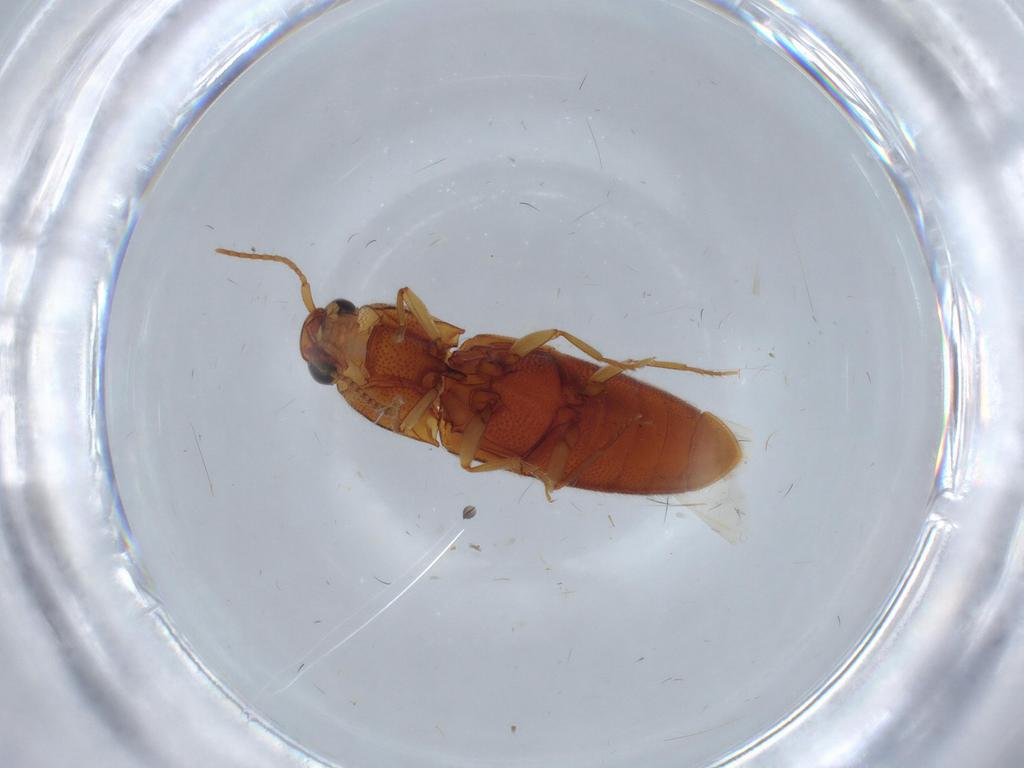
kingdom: Animalia
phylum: Arthropoda
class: Insecta
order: Coleoptera
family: Elateridae
